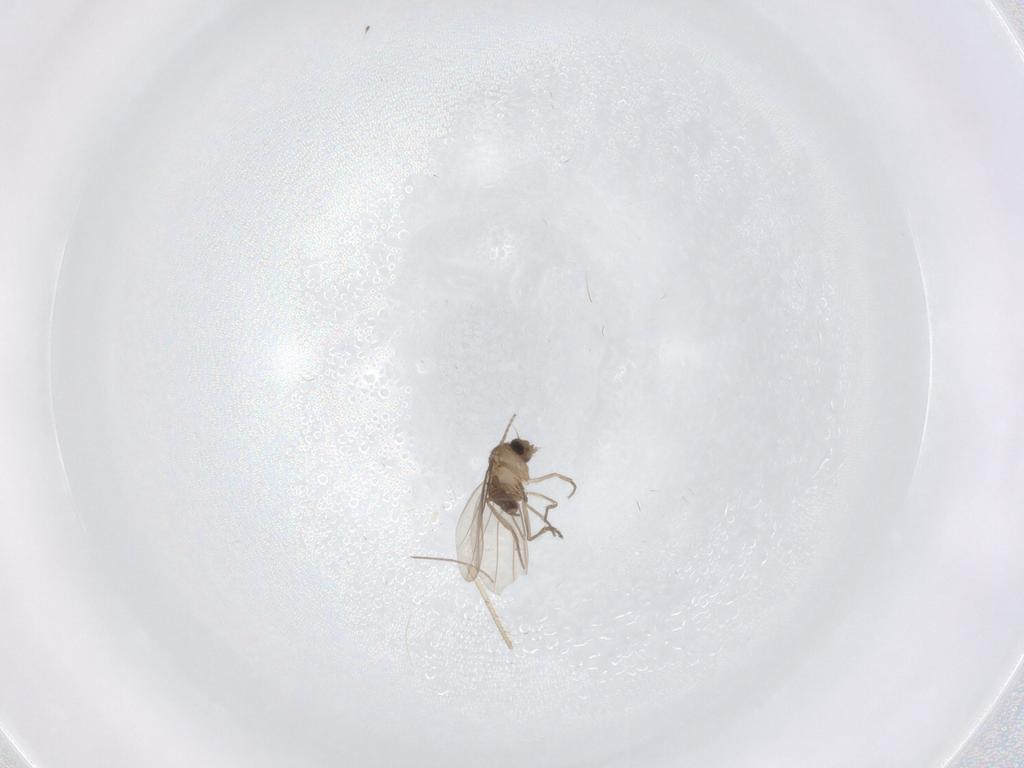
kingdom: Animalia
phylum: Arthropoda
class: Insecta
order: Diptera
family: Chironomidae
